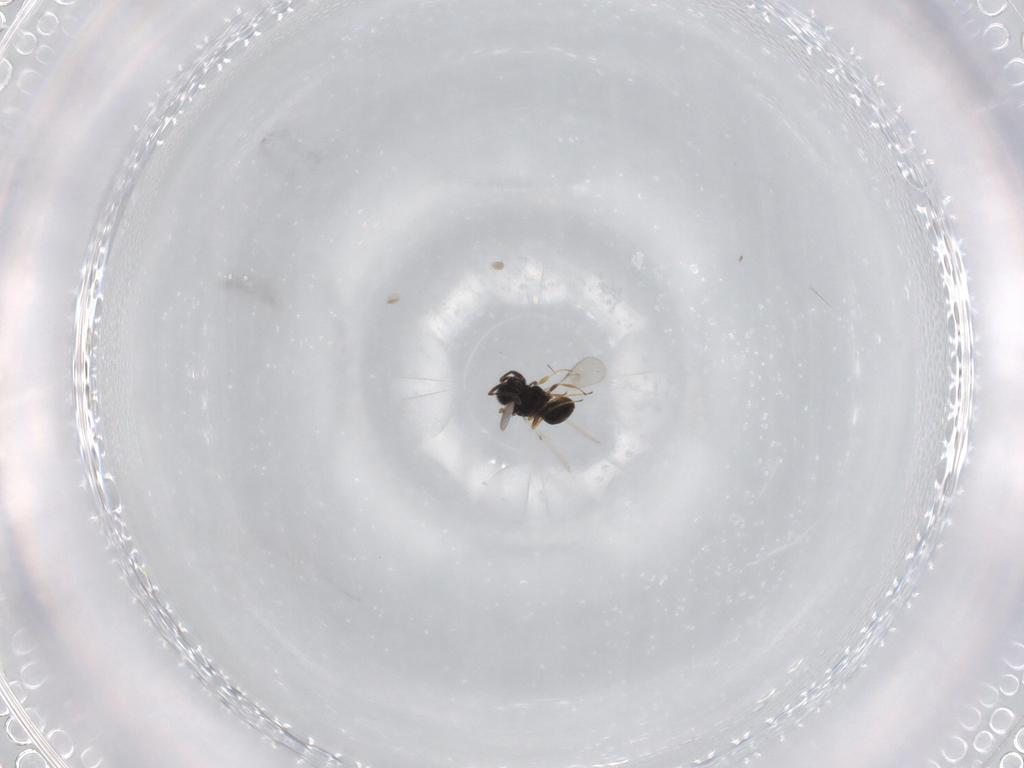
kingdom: Animalia
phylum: Arthropoda
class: Insecta
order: Hymenoptera
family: Scelionidae
